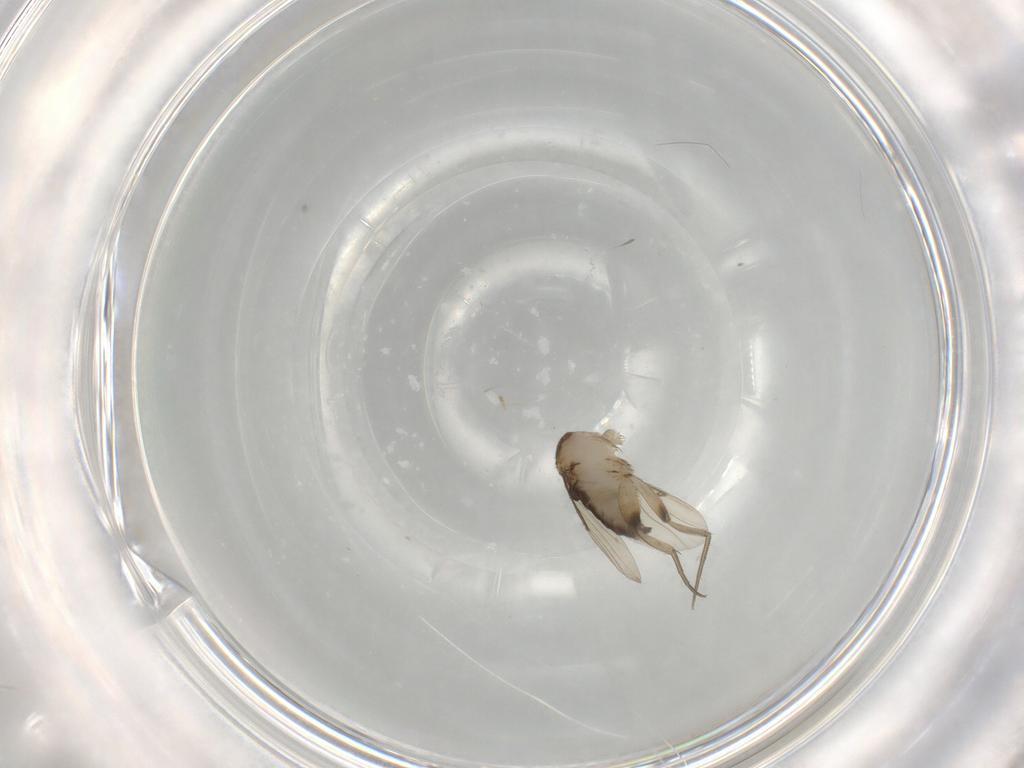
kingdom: Animalia
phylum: Arthropoda
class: Insecta
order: Diptera
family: Phoridae
